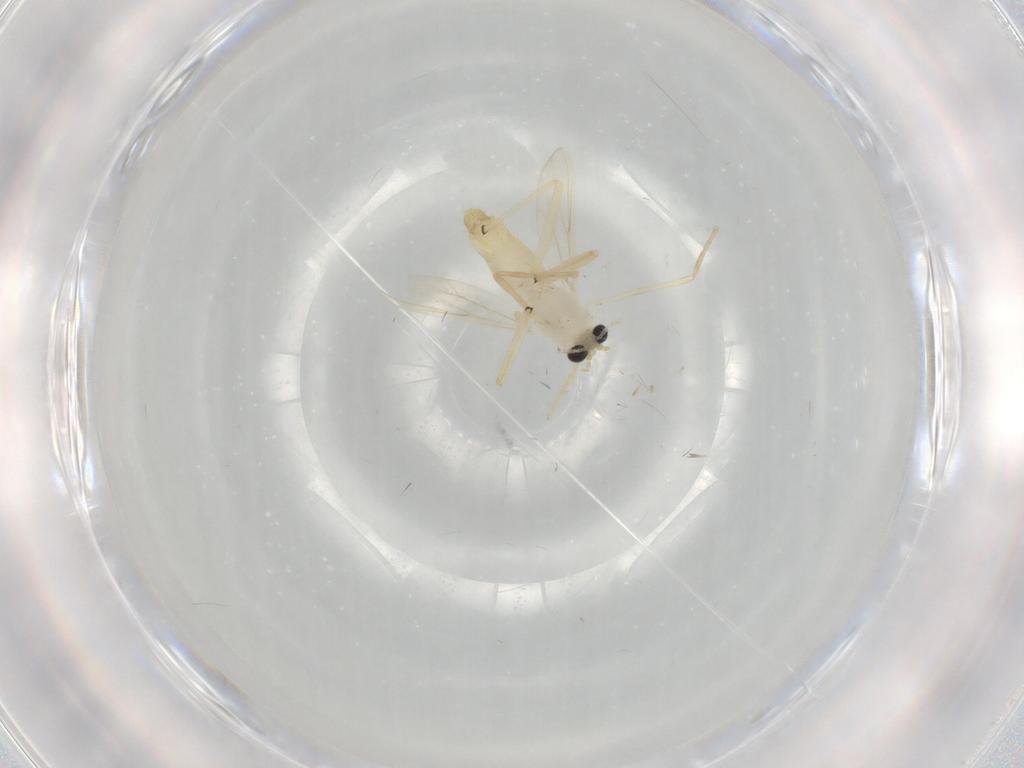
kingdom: Animalia
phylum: Arthropoda
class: Insecta
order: Diptera
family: Chironomidae
